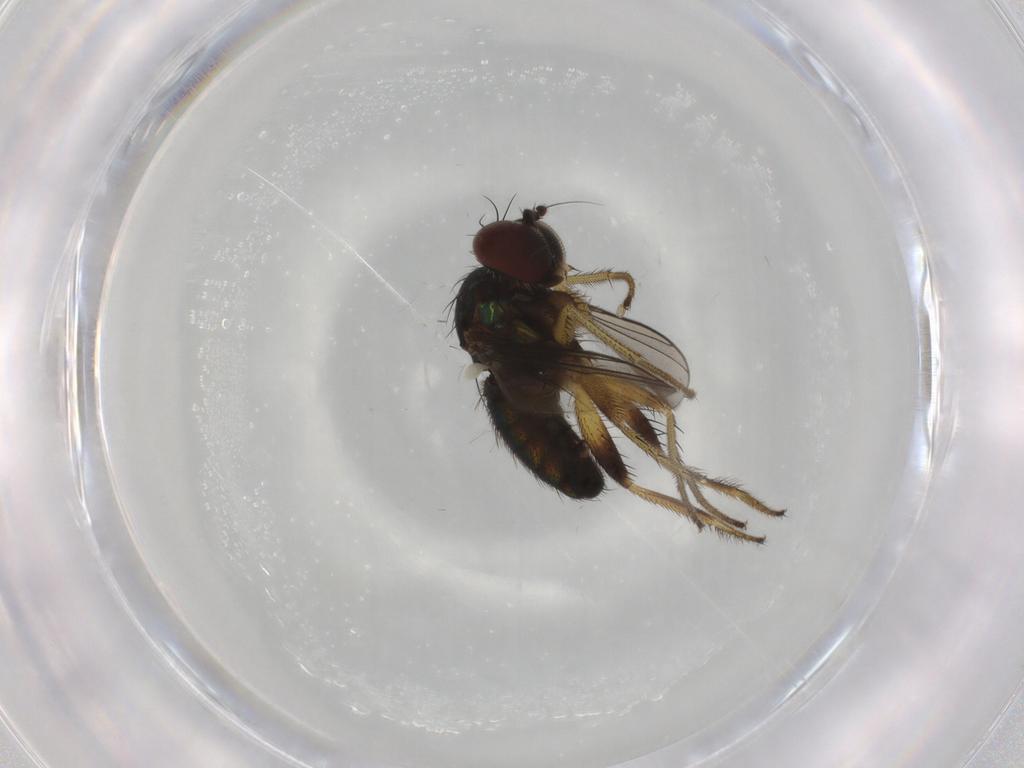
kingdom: Animalia
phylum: Arthropoda
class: Insecta
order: Diptera
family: Dolichopodidae
